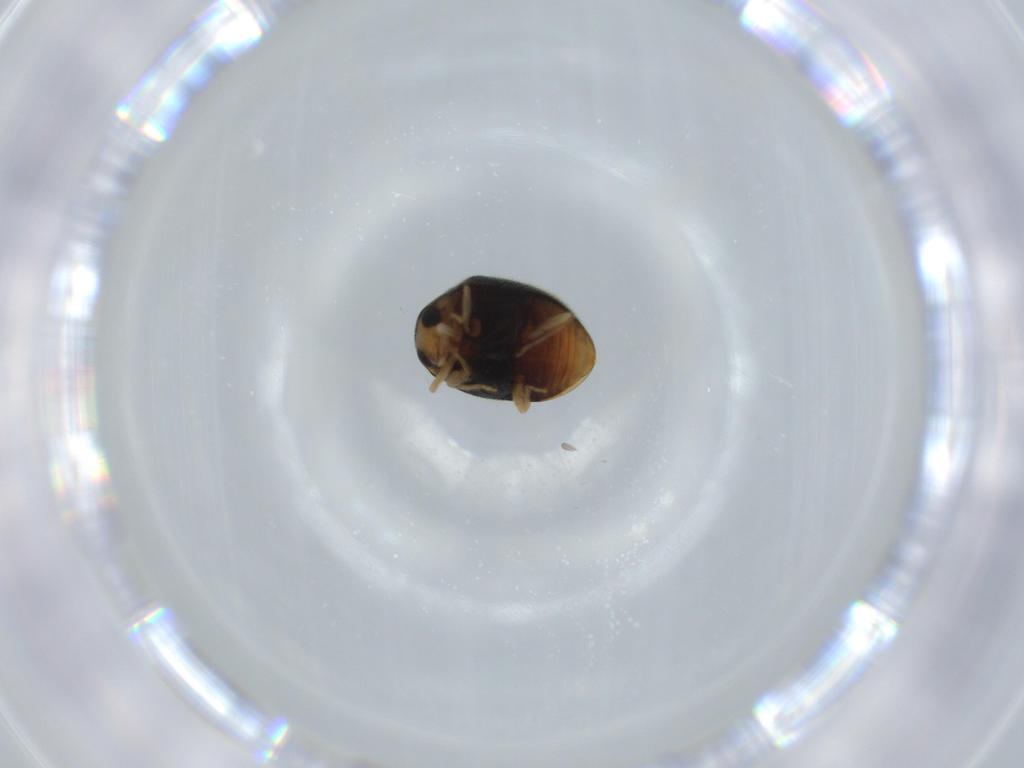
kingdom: Animalia
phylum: Arthropoda
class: Insecta
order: Coleoptera
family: Coccinellidae
